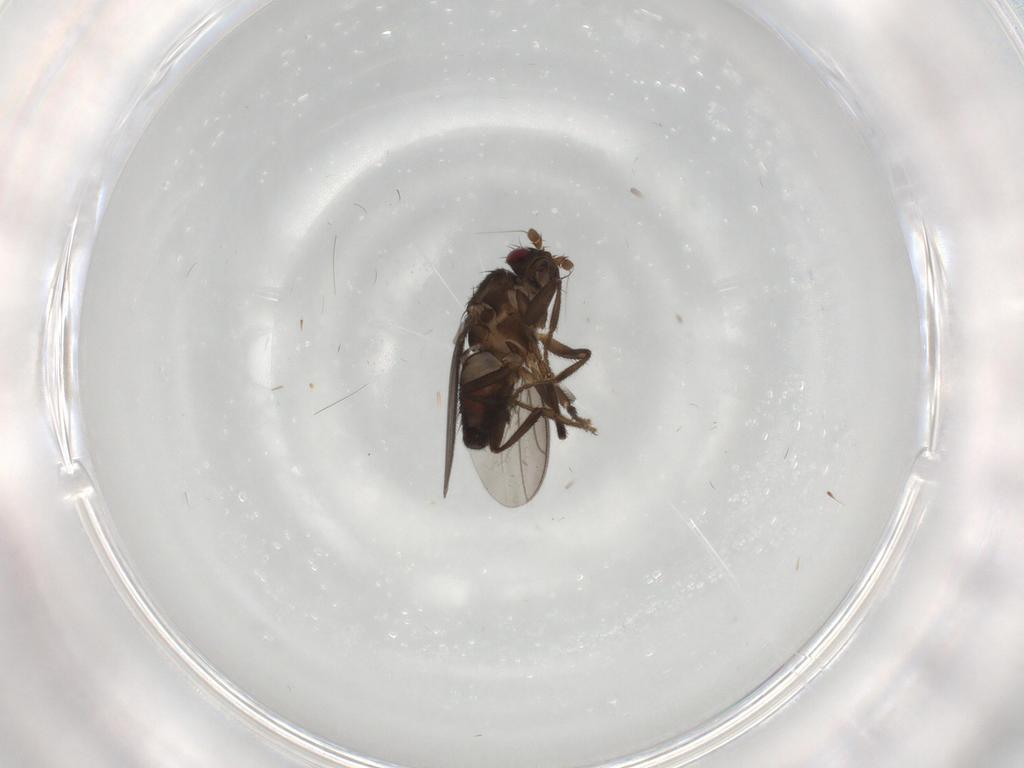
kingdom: Animalia
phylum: Arthropoda
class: Insecta
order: Diptera
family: Sphaeroceridae
